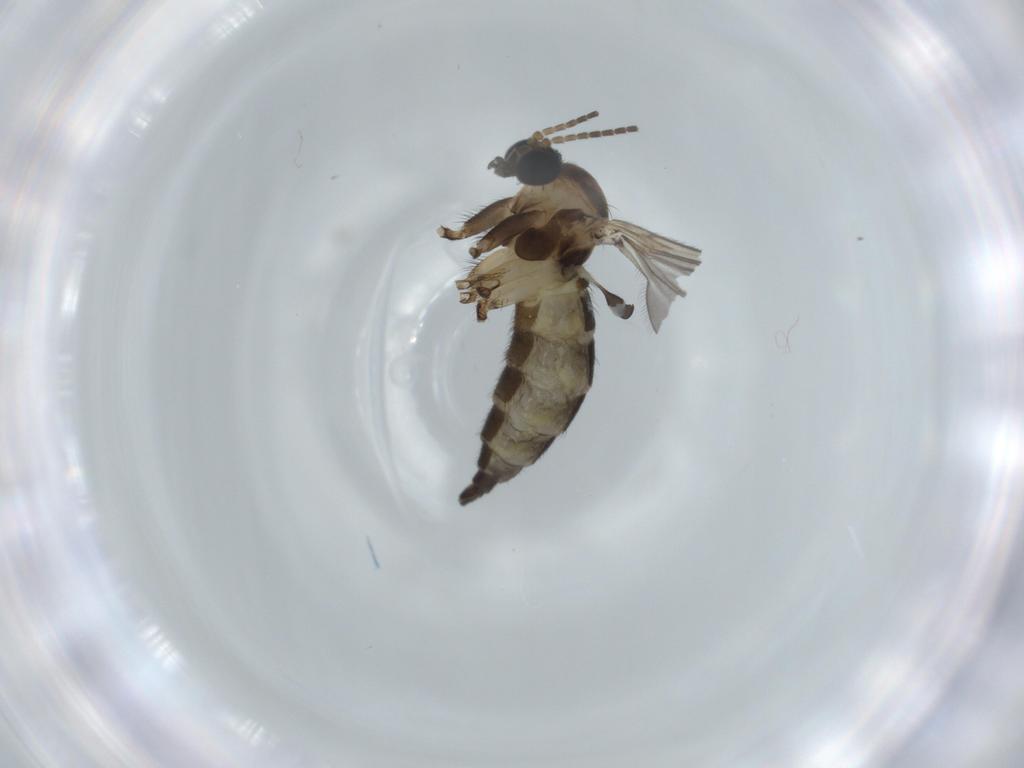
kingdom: Animalia
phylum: Arthropoda
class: Insecta
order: Diptera
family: Sciaridae
